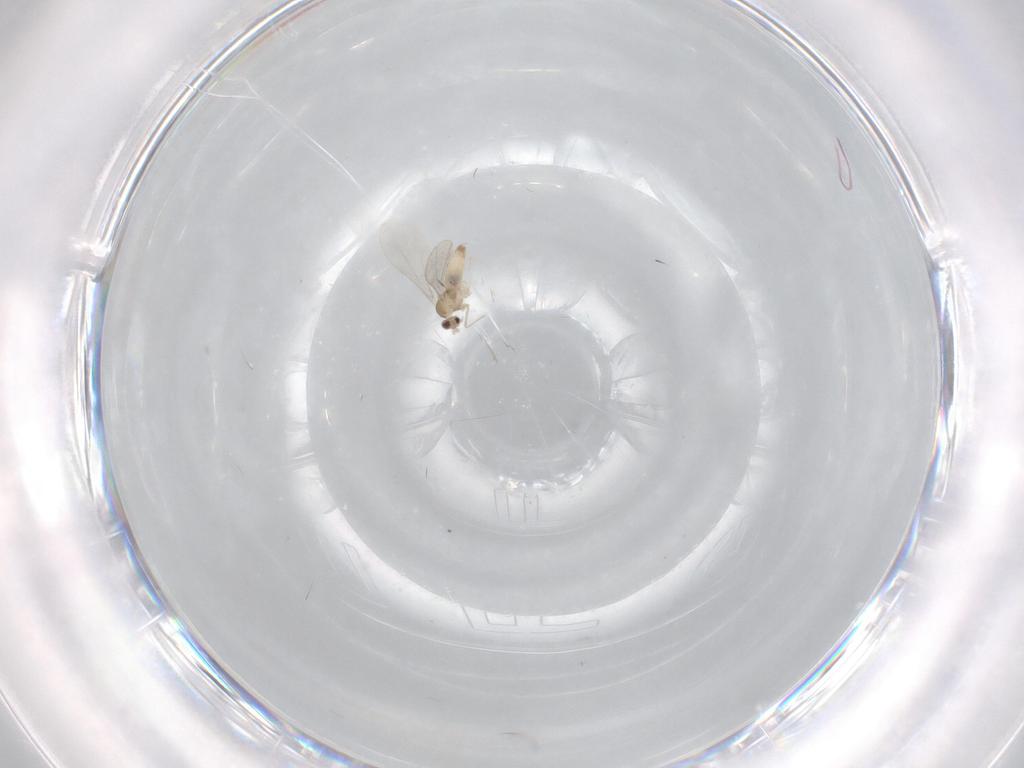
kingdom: Animalia
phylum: Arthropoda
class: Insecta
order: Diptera
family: Cecidomyiidae
